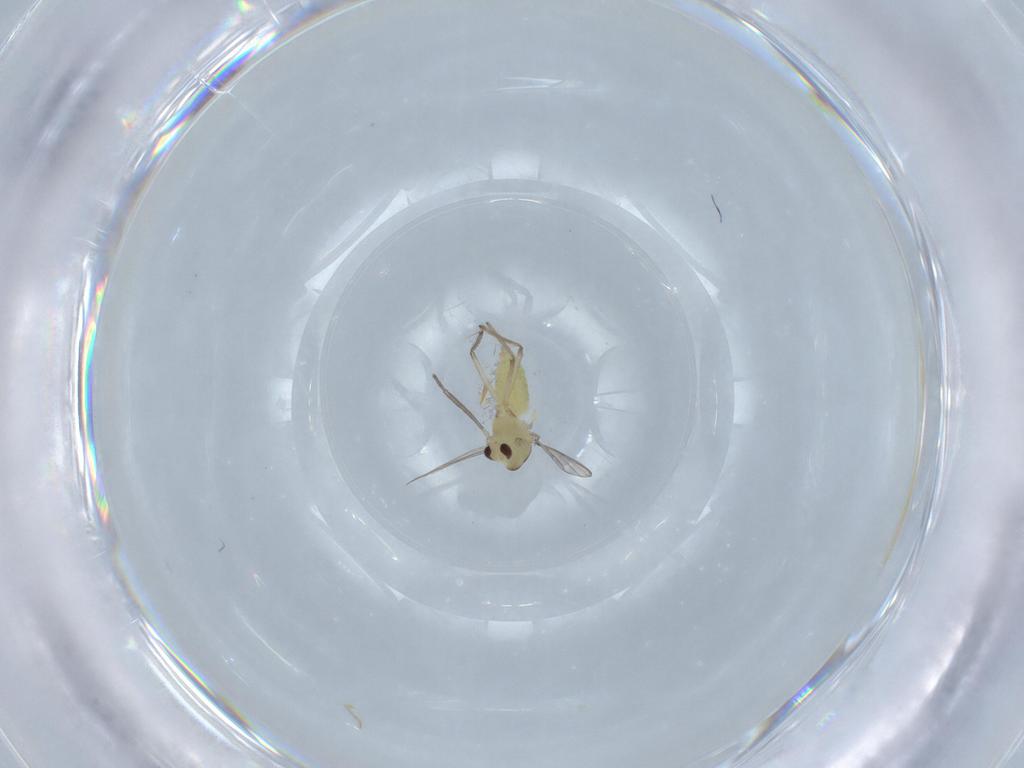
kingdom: Animalia
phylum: Arthropoda
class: Insecta
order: Diptera
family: Chironomidae
